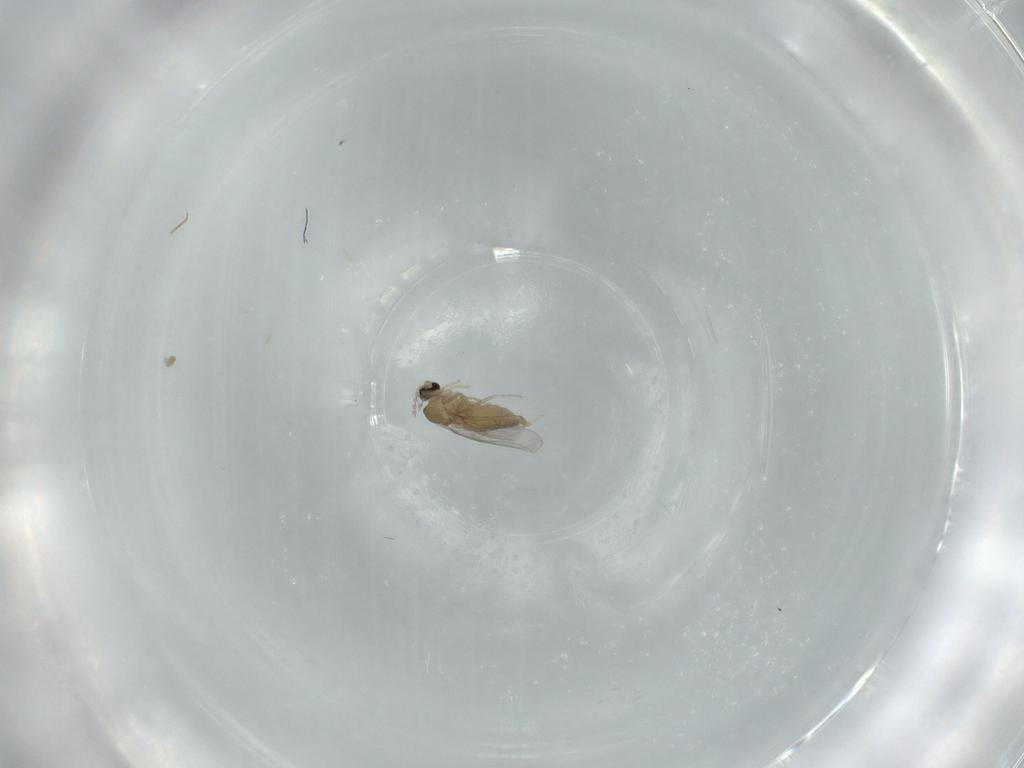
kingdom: Animalia
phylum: Arthropoda
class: Insecta
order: Diptera
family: Cecidomyiidae
